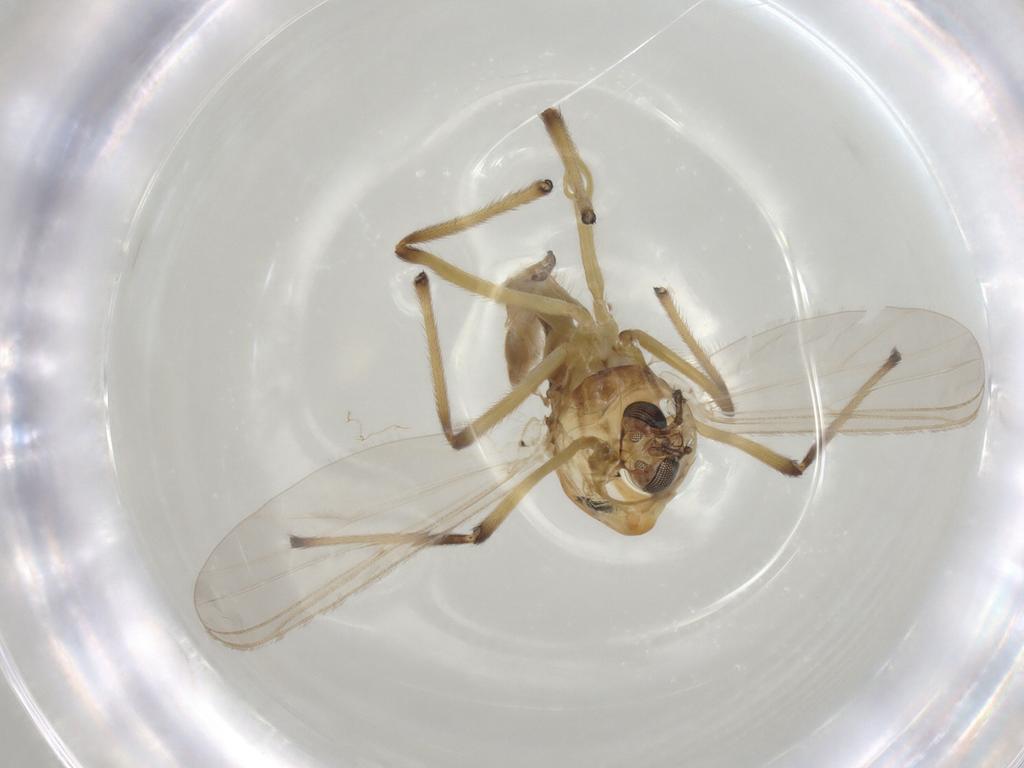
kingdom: Animalia
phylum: Arthropoda
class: Insecta
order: Diptera
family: Chironomidae
